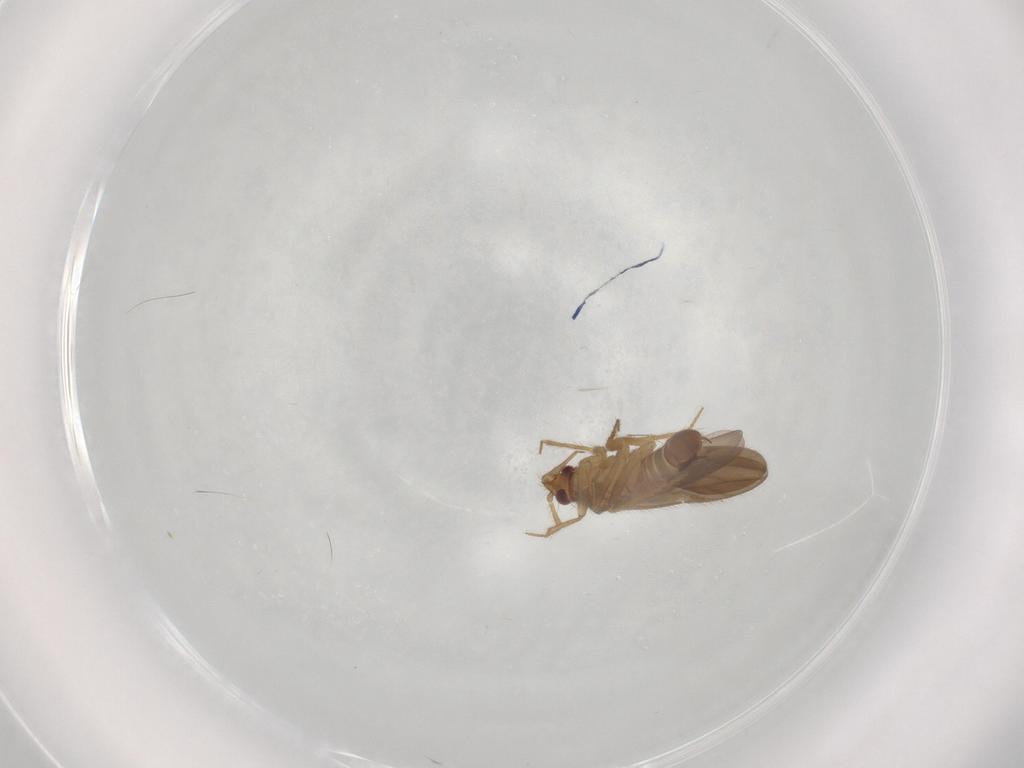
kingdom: Animalia
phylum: Arthropoda
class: Insecta
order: Hemiptera
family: Ceratocombidae
